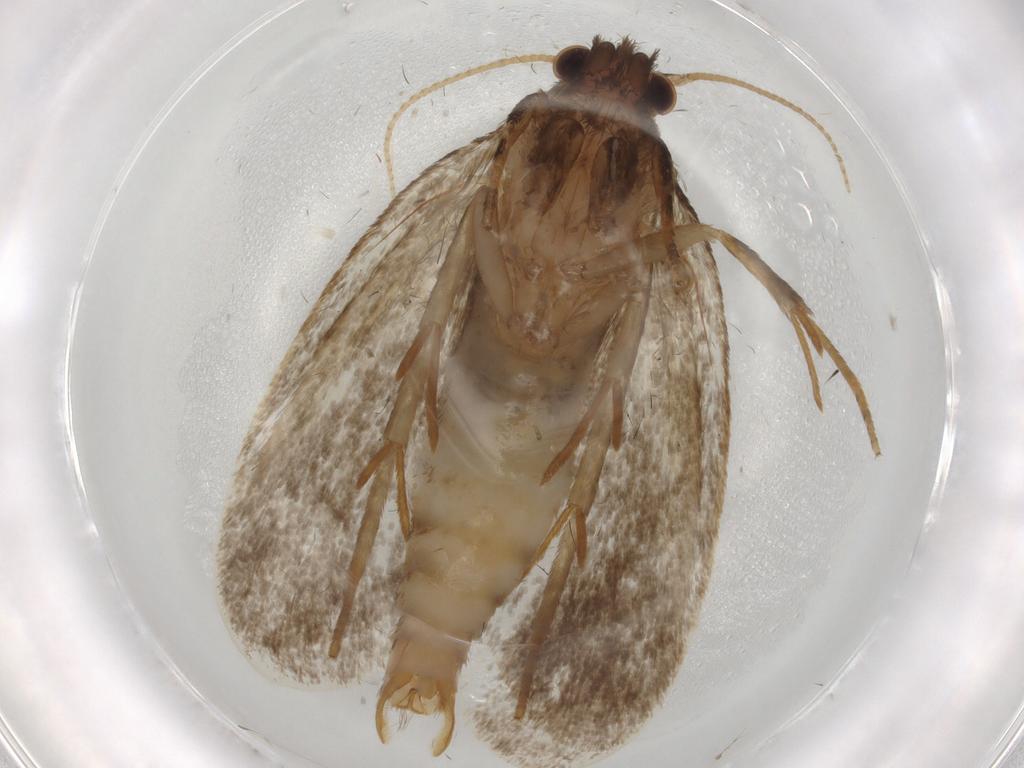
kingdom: Animalia
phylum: Arthropoda
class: Insecta
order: Lepidoptera
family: Tineidae
